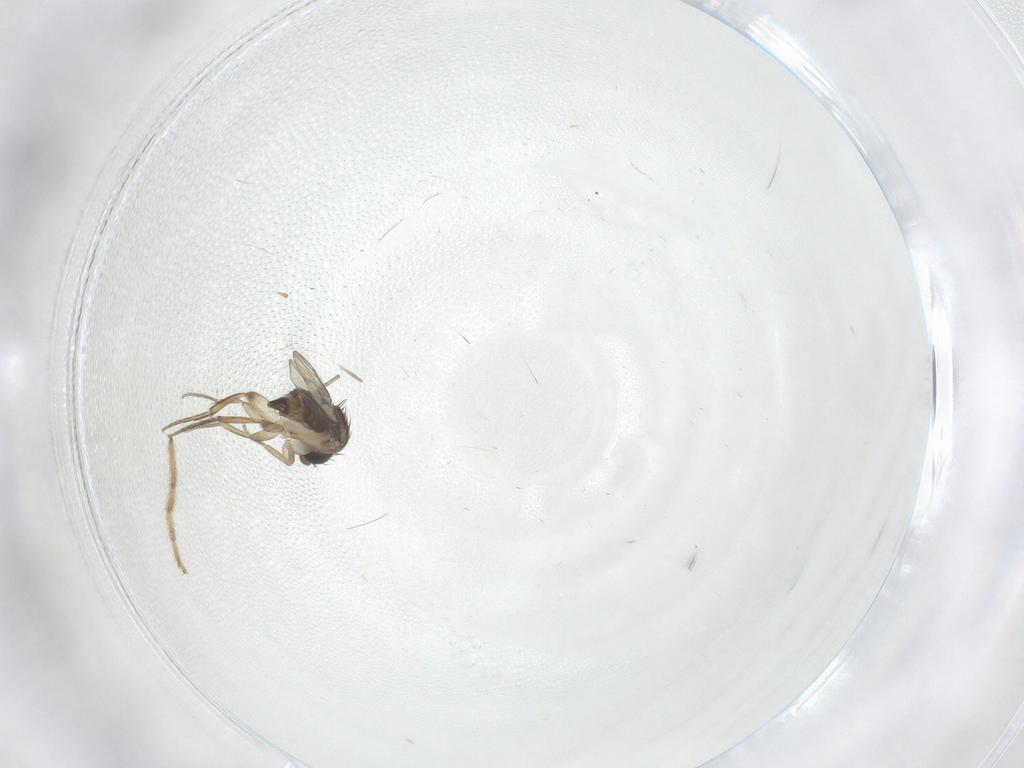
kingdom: Animalia
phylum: Arthropoda
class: Insecta
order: Diptera
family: Chironomidae
